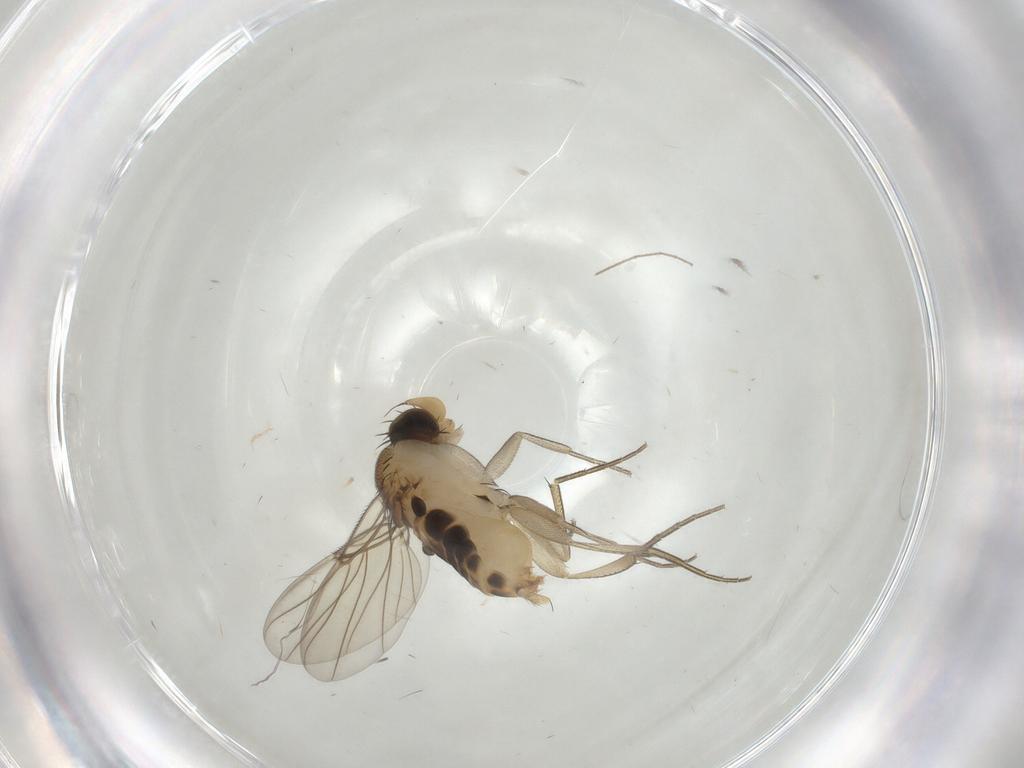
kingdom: Animalia
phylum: Arthropoda
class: Insecta
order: Diptera
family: Phoridae
